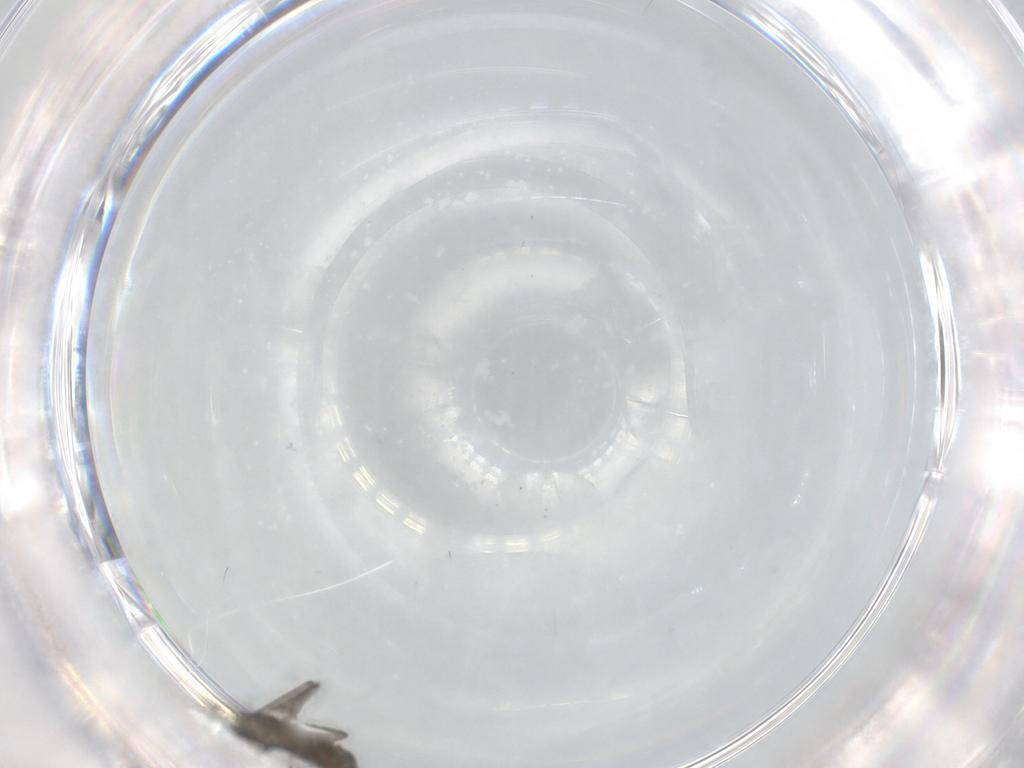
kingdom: Animalia
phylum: Arthropoda
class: Insecta
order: Diptera
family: Sciaridae
